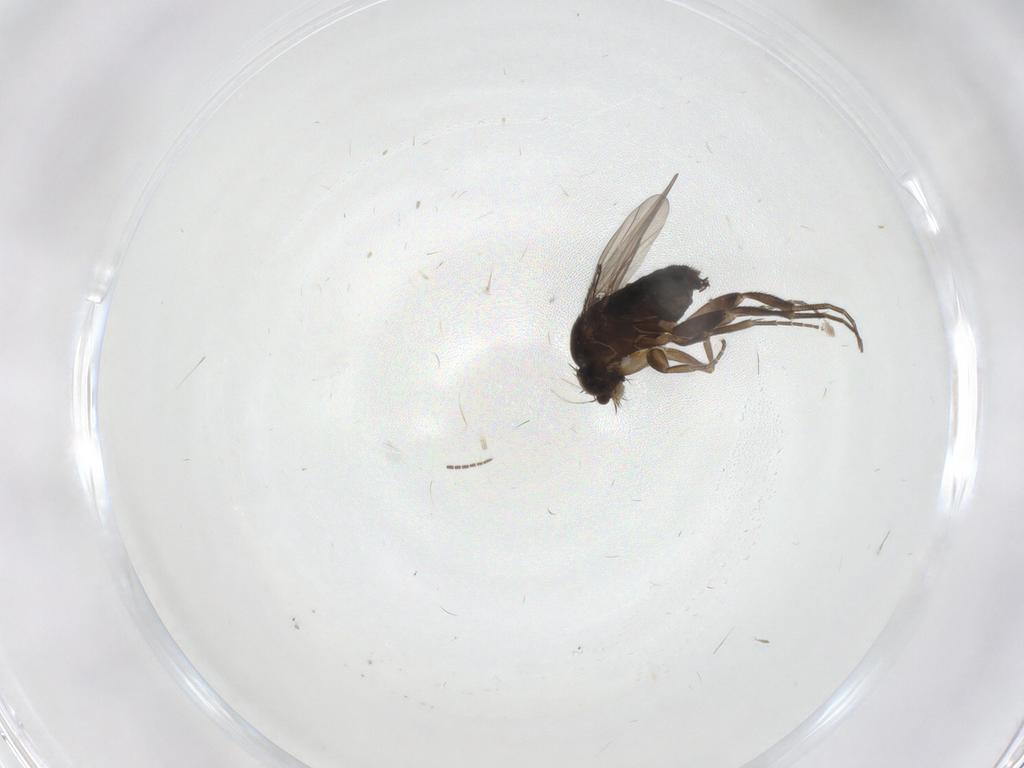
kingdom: Animalia
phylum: Arthropoda
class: Insecta
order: Diptera
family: Phoridae
